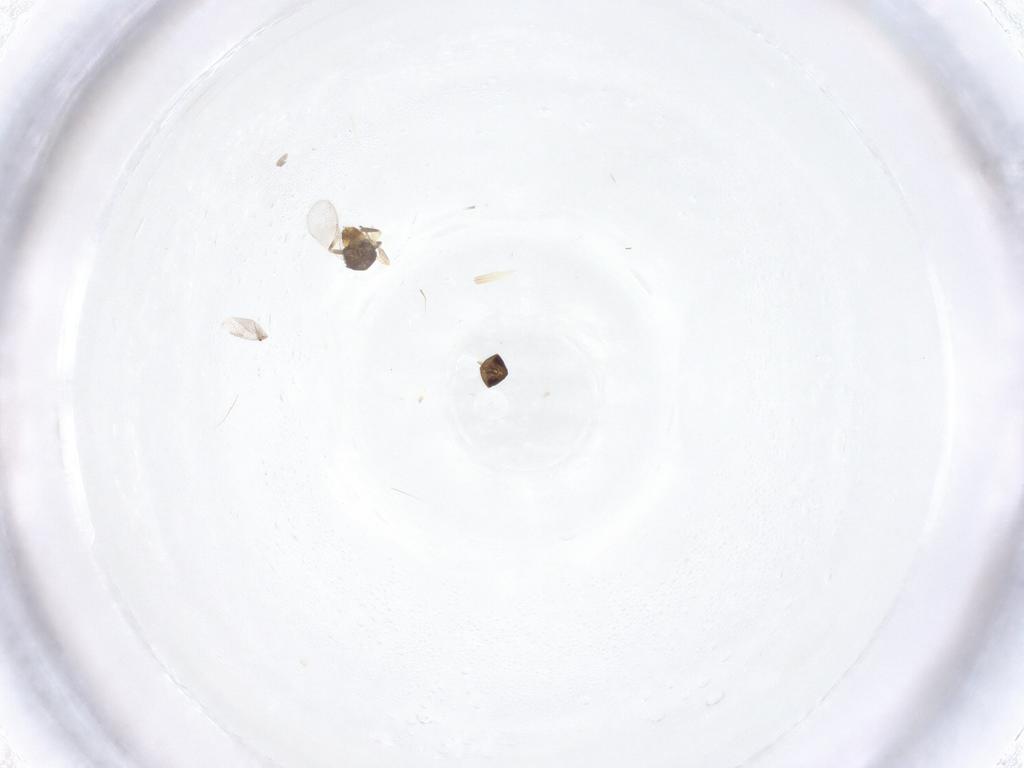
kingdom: Animalia
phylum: Arthropoda
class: Insecta
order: Hymenoptera
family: Aphelinidae
